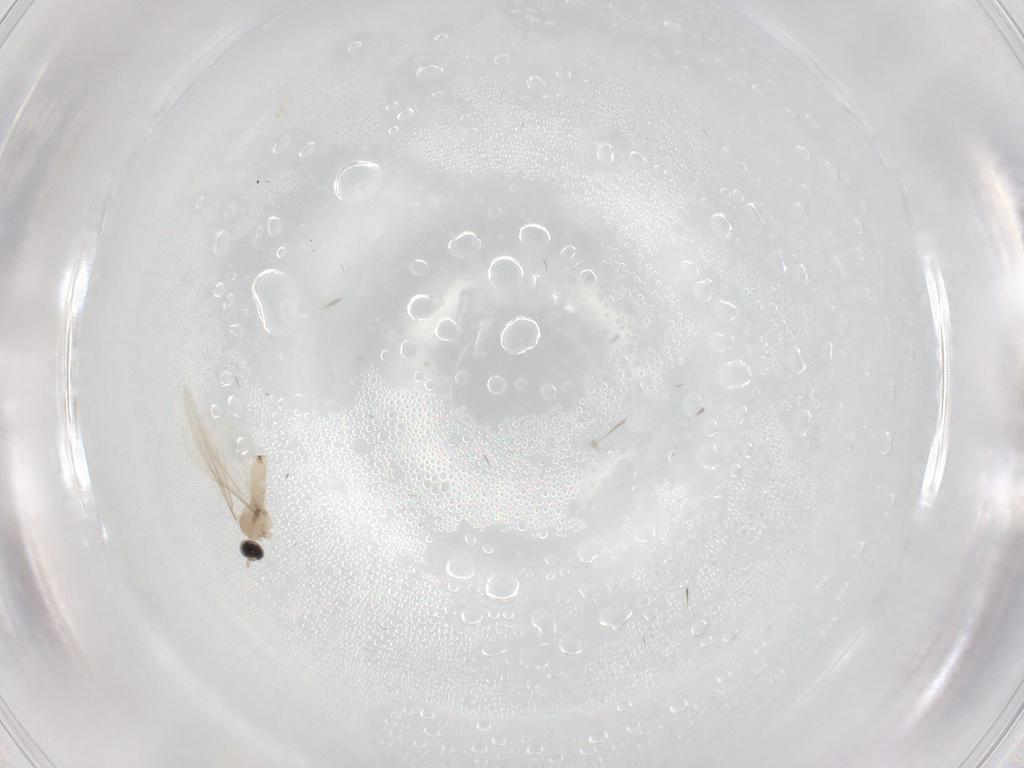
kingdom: Animalia
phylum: Arthropoda
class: Insecta
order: Diptera
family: Cecidomyiidae
